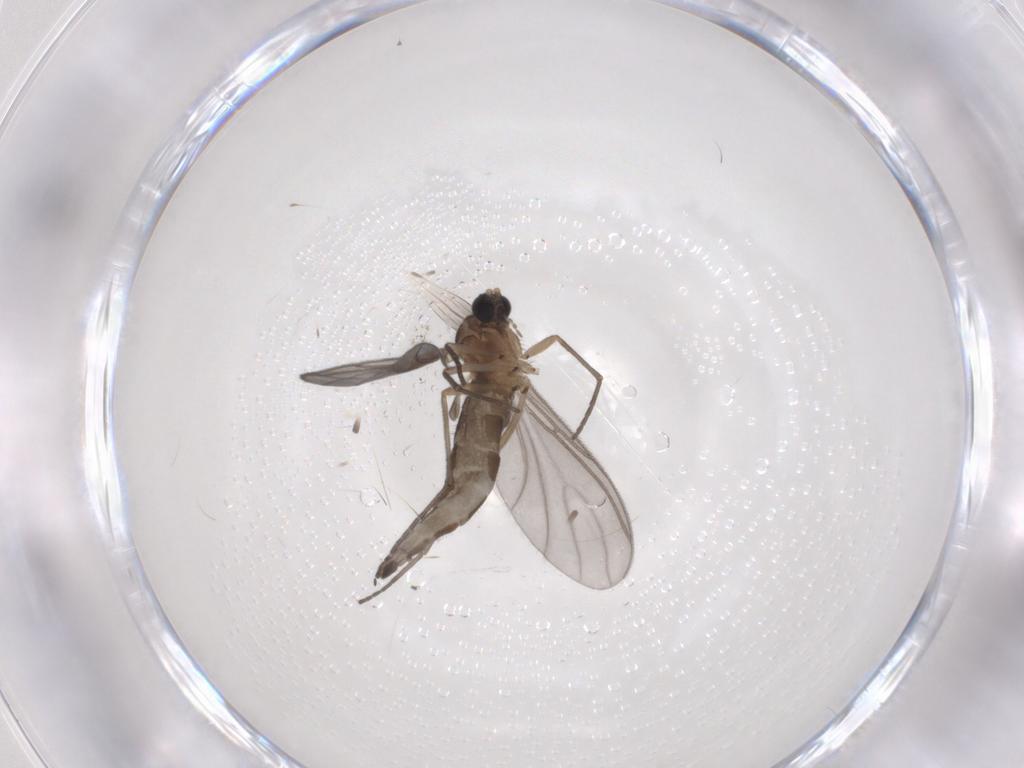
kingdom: Animalia
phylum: Arthropoda
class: Insecta
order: Diptera
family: Sciaridae
